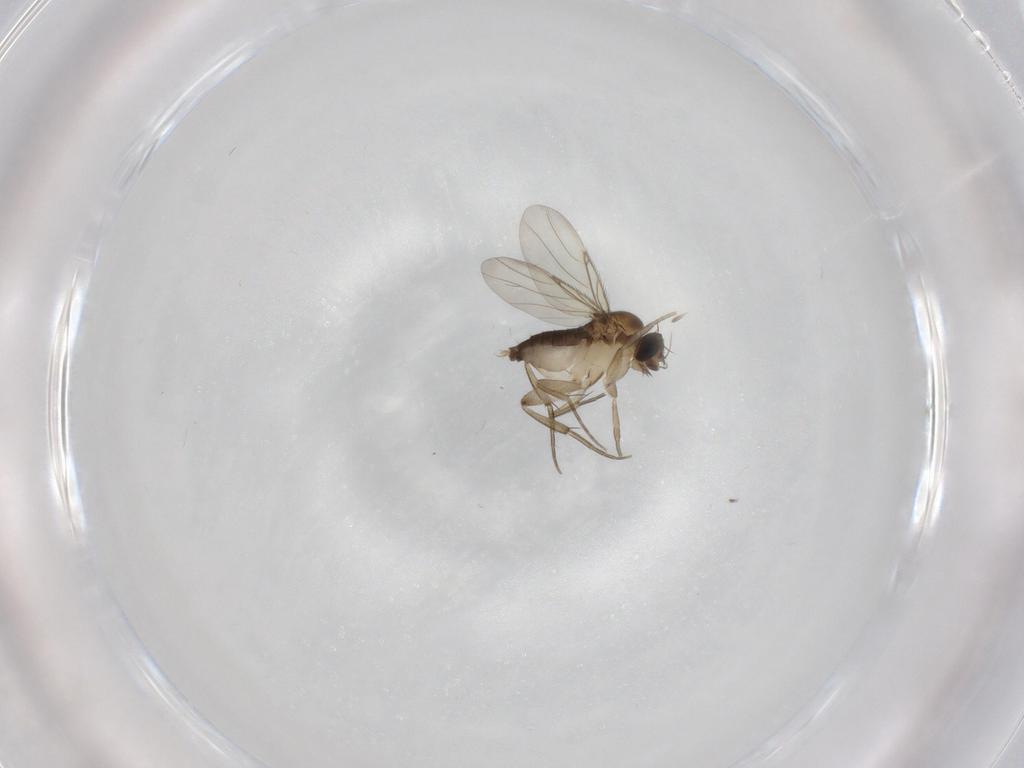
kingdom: Animalia
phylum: Arthropoda
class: Insecta
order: Diptera
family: Phoridae
